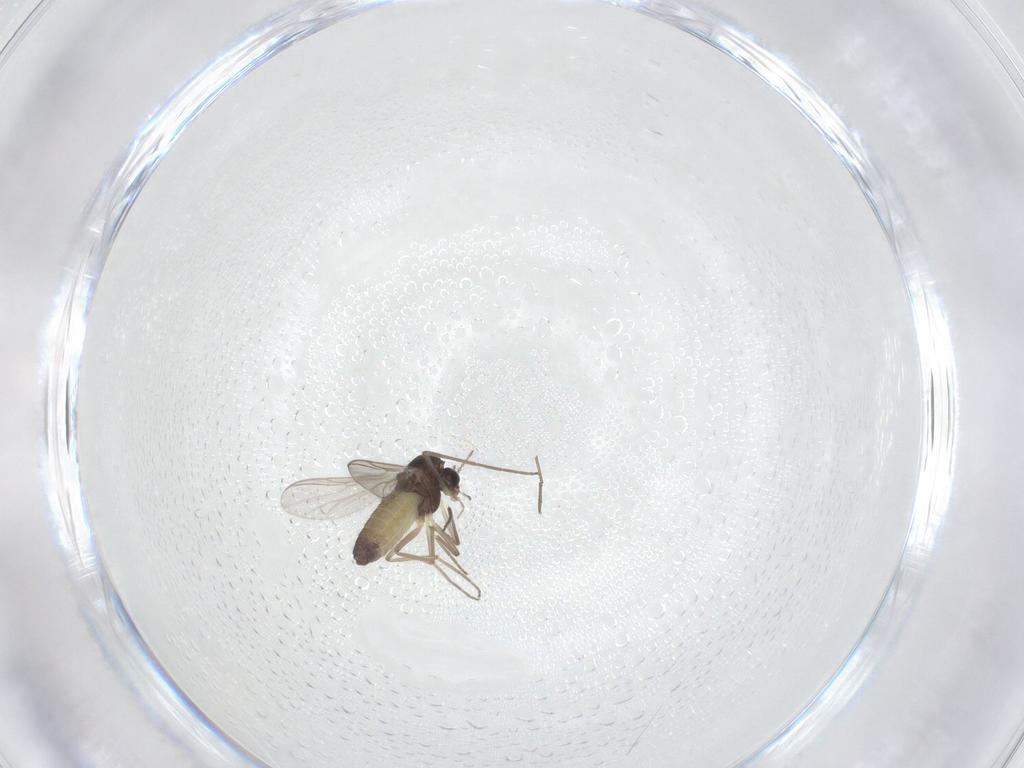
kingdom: Animalia
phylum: Arthropoda
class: Insecta
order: Diptera
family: Chironomidae
